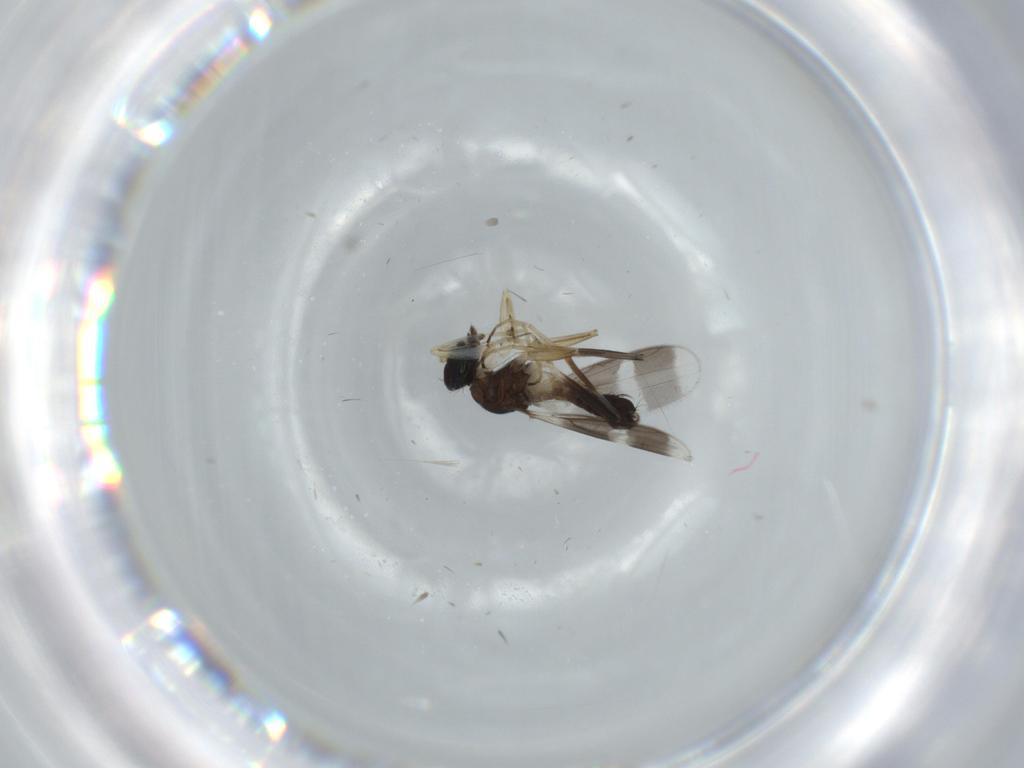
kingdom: Animalia
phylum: Arthropoda
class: Insecta
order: Diptera
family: Hybotidae
